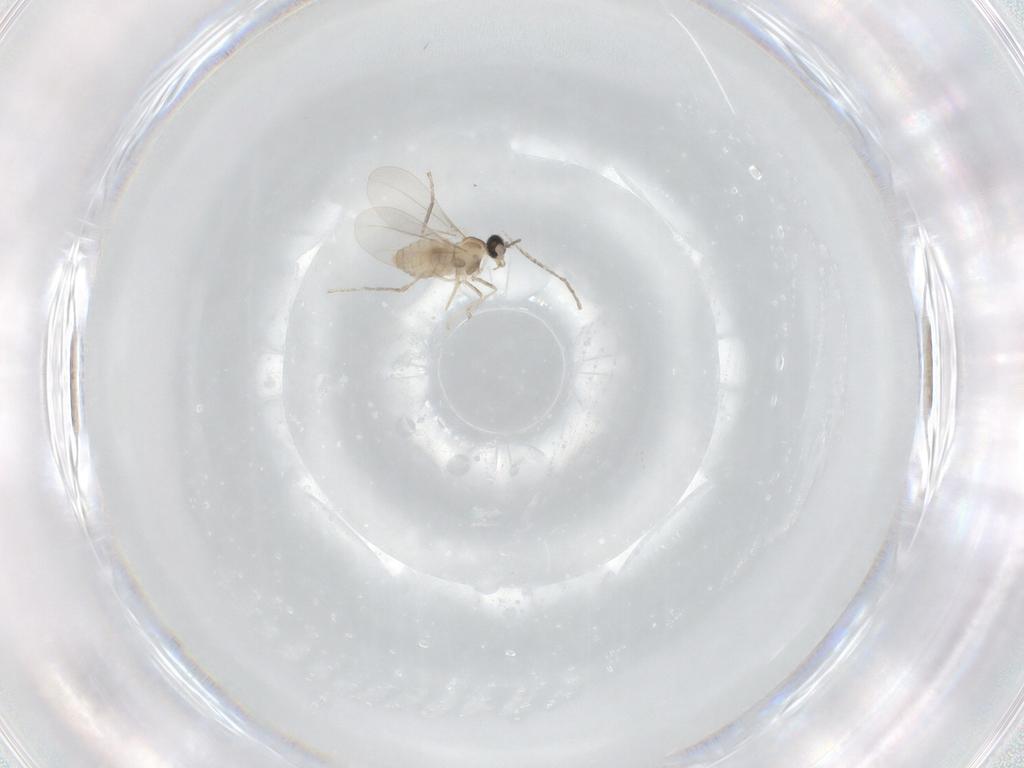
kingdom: Animalia
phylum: Arthropoda
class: Insecta
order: Diptera
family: Cecidomyiidae
